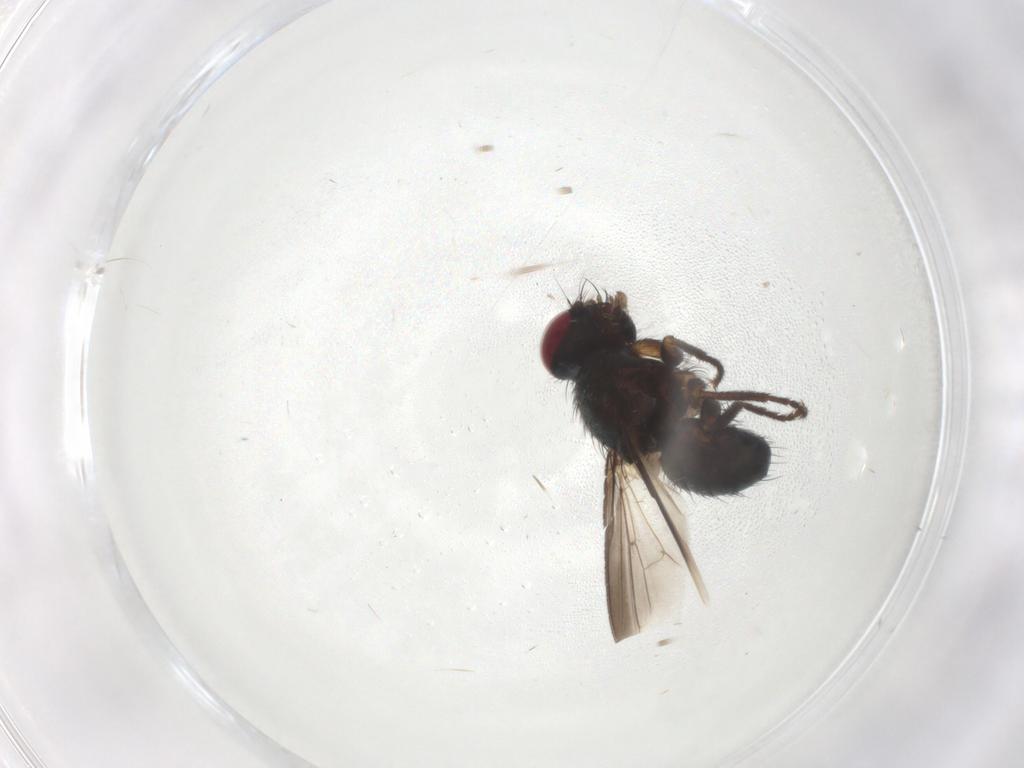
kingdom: Animalia
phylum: Arthropoda
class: Insecta
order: Diptera
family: Tachinidae
